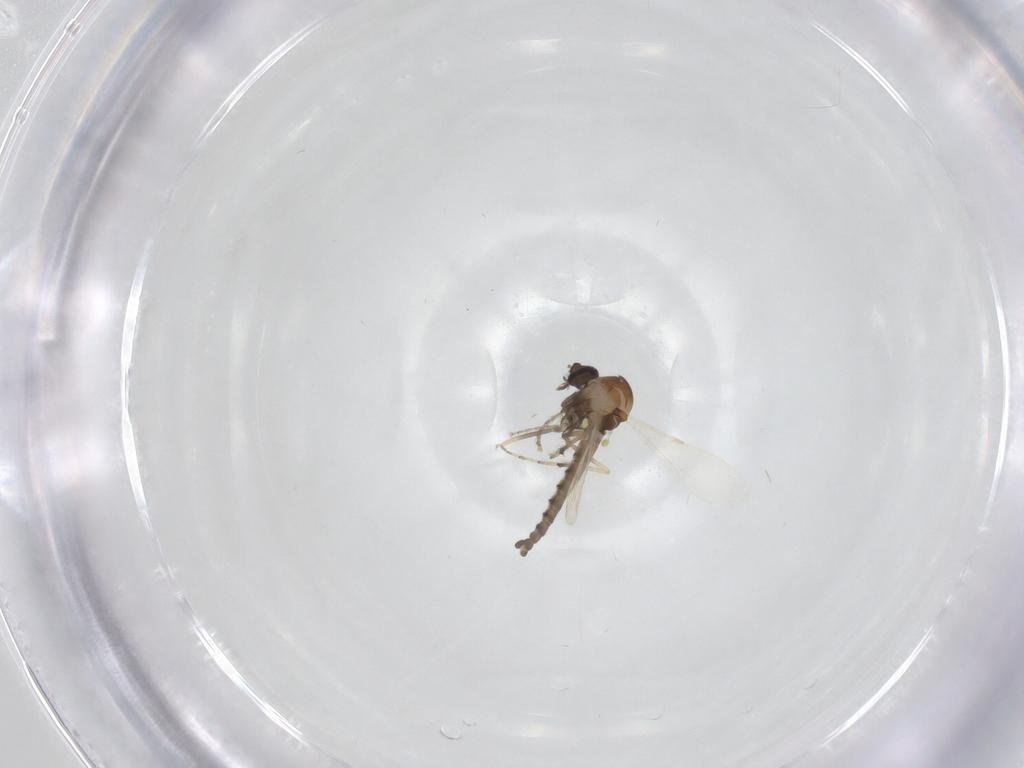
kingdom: Animalia
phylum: Arthropoda
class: Insecta
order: Diptera
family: Ceratopogonidae
